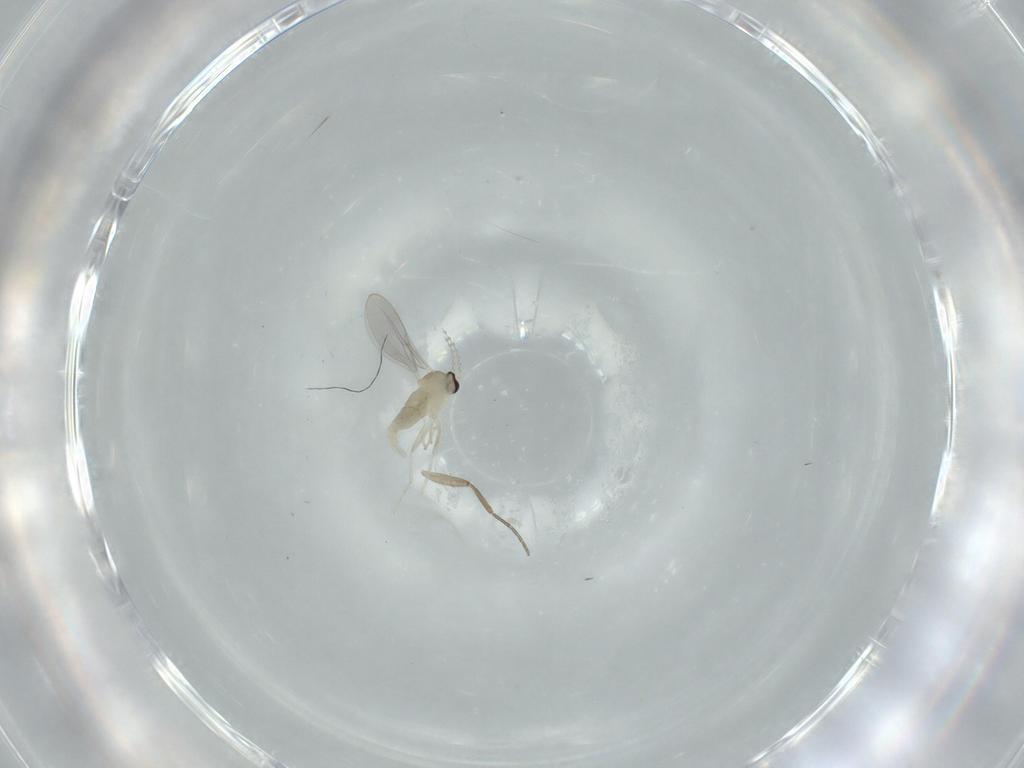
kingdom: Animalia
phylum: Arthropoda
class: Insecta
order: Diptera
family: Cecidomyiidae
